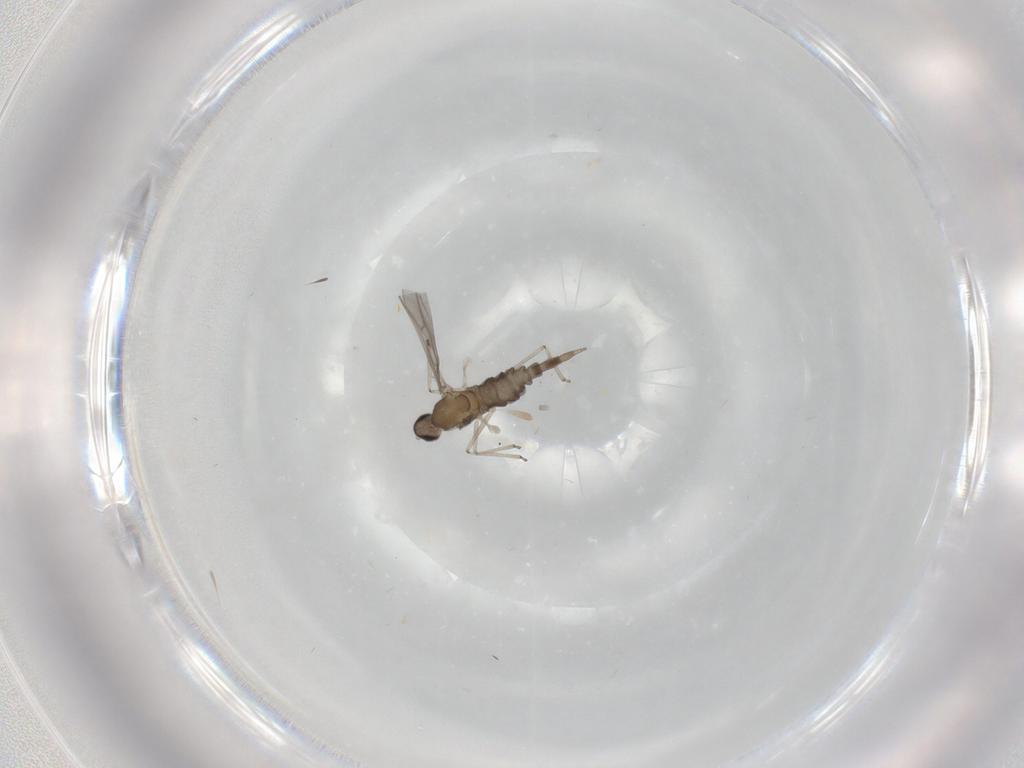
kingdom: Animalia
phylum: Arthropoda
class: Insecta
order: Diptera
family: Cecidomyiidae
